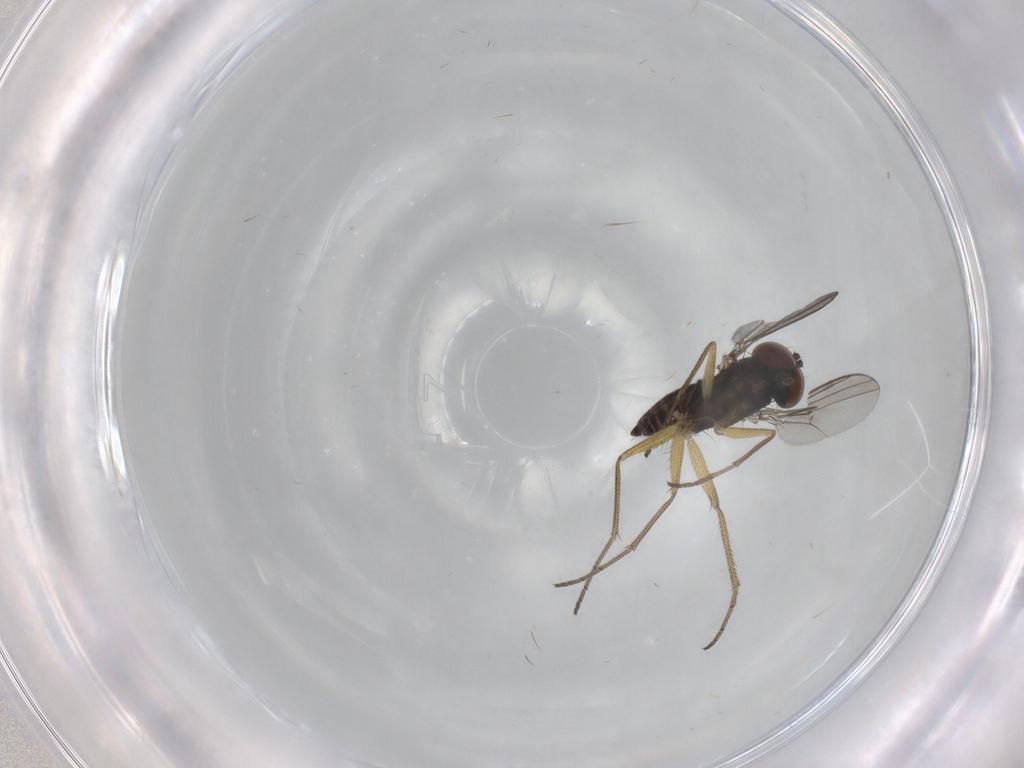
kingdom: Animalia
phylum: Arthropoda
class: Insecta
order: Diptera
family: Dolichopodidae
